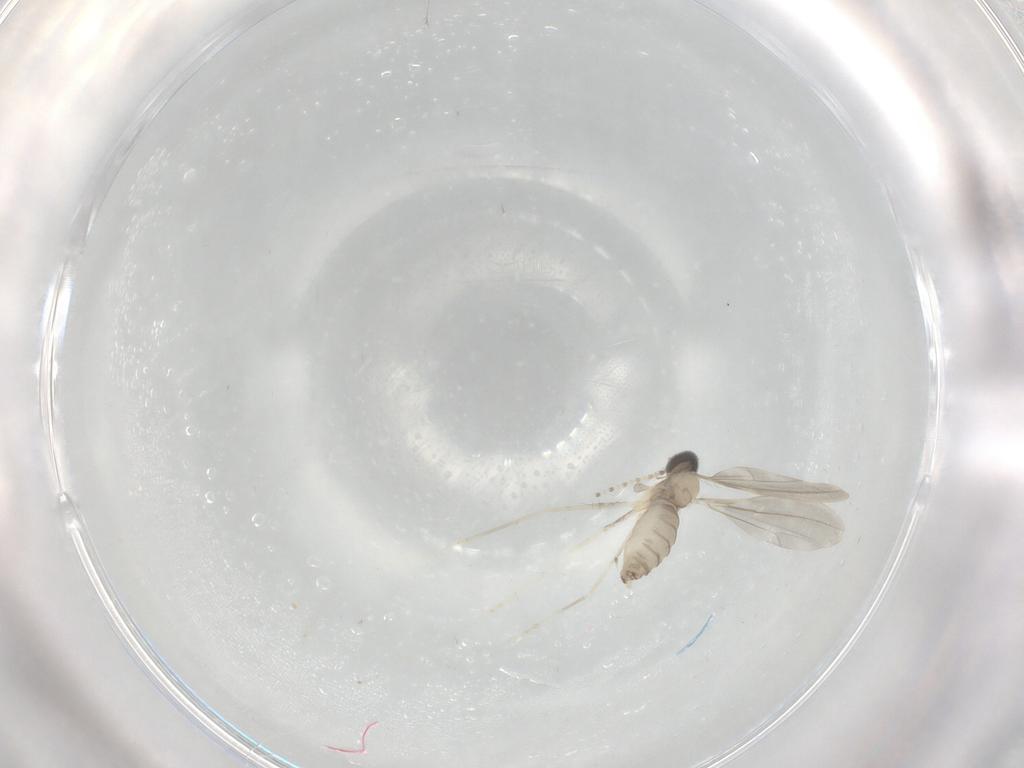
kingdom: Animalia
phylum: Arthropoda
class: Insecta
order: Diptera
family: Cecidomyiidae
